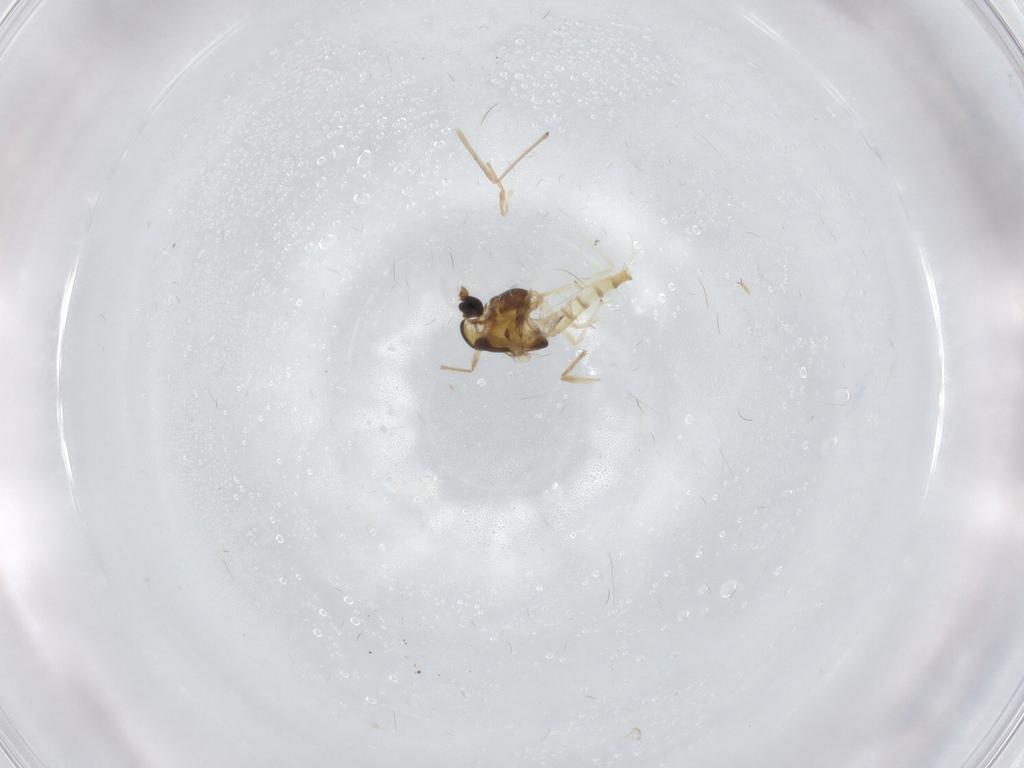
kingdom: Animalia
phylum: Arthropoda
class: Insecta
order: Diptera
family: Chironomidae
